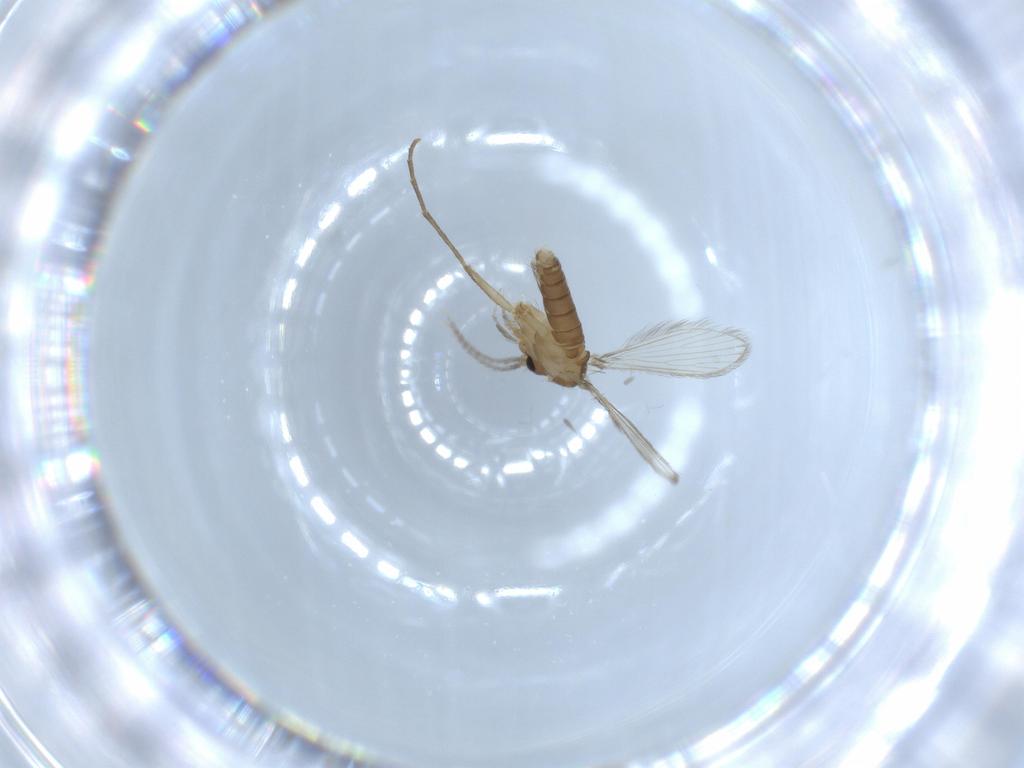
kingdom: Animalia
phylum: Arthropoda
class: Insecta
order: Diptera
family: Psychodidae
